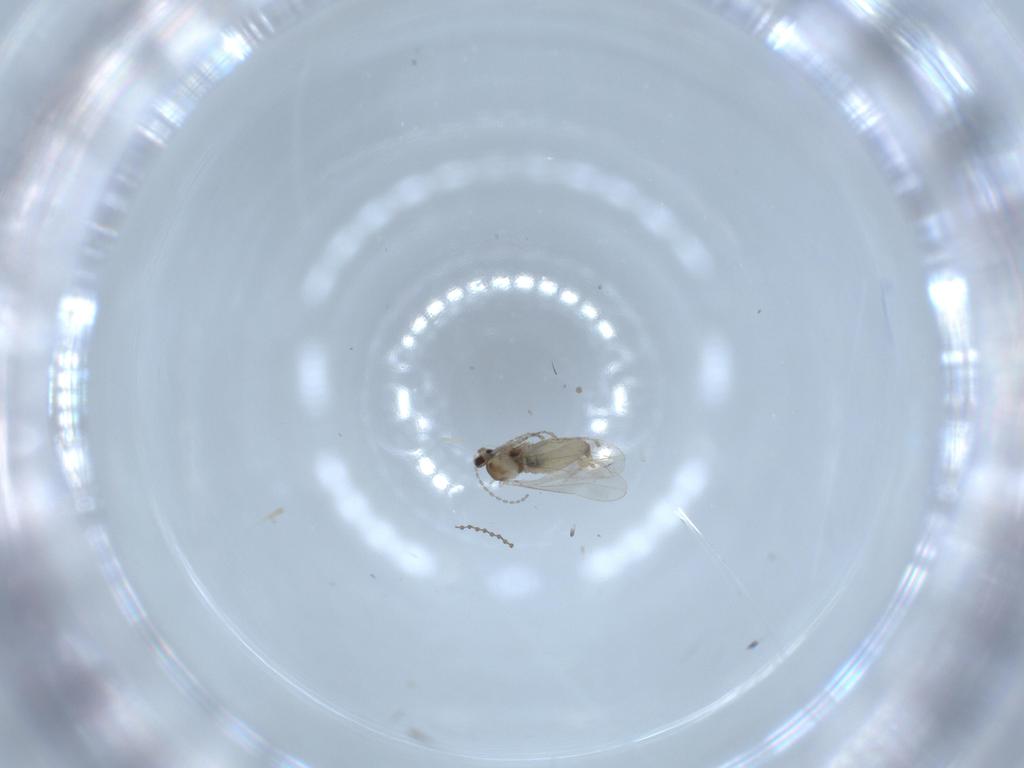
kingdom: Animalia
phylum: Arthropoda
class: Insecta
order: Diptera
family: Cecidomyiidae
